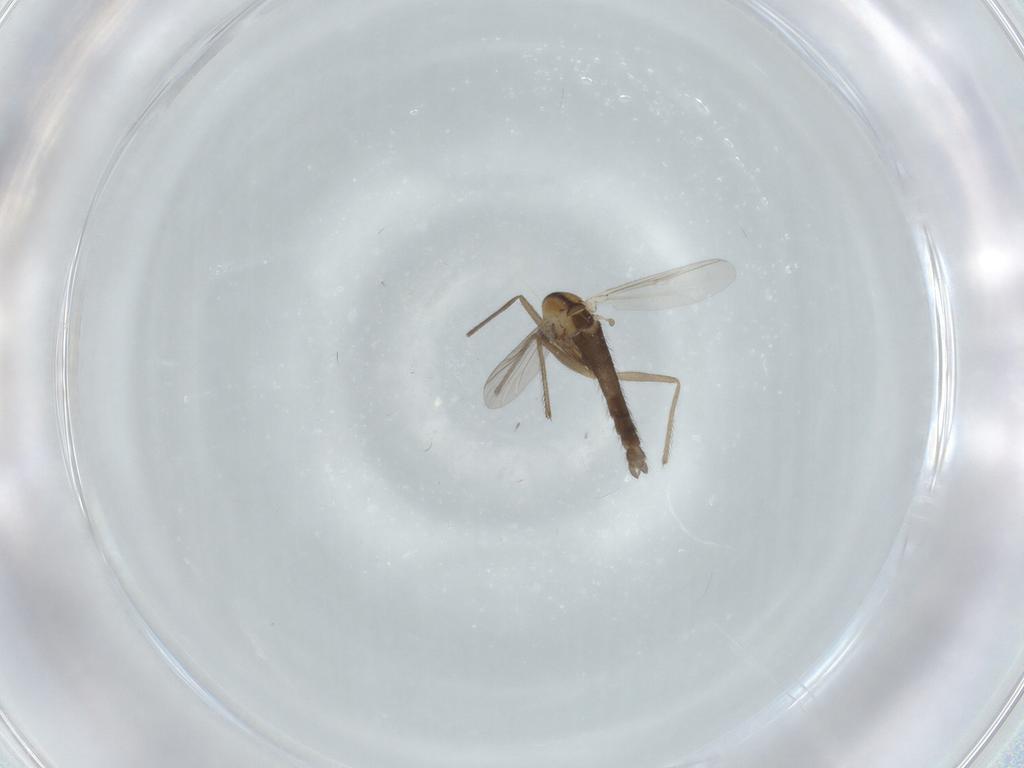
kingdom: Animalia
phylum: Arthropoda
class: Insecta
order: Diptera
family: Chironomidae
